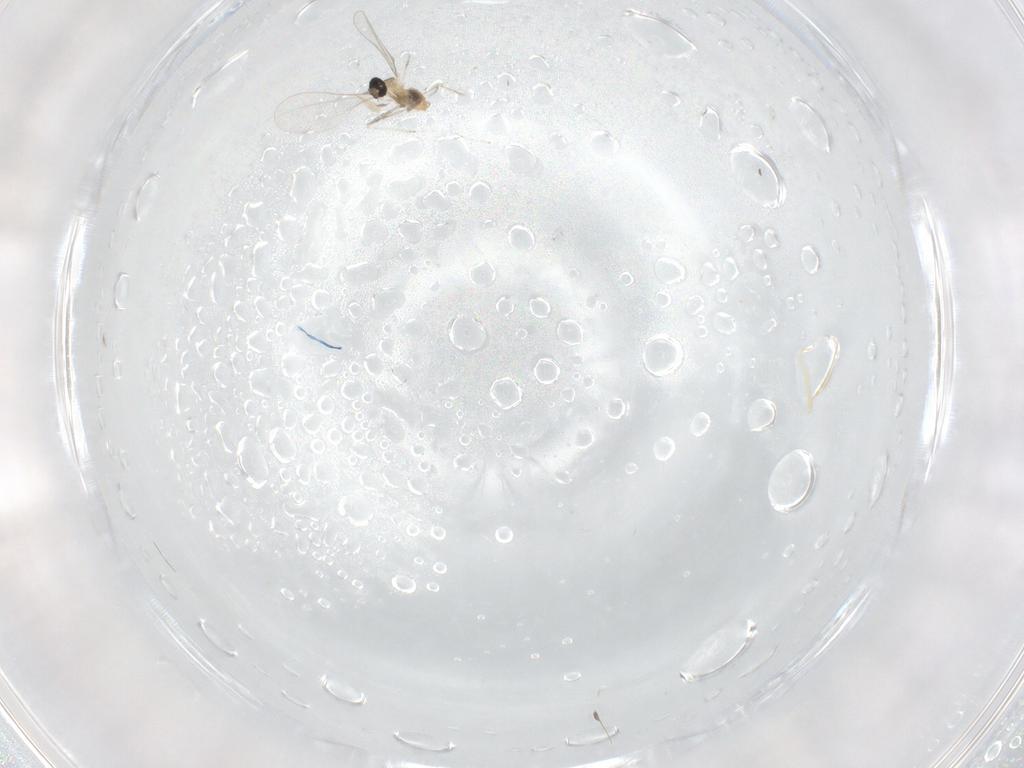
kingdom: Animalia
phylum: Arthropoda
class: Insecta
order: Diptera
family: Cecidomyiidae
